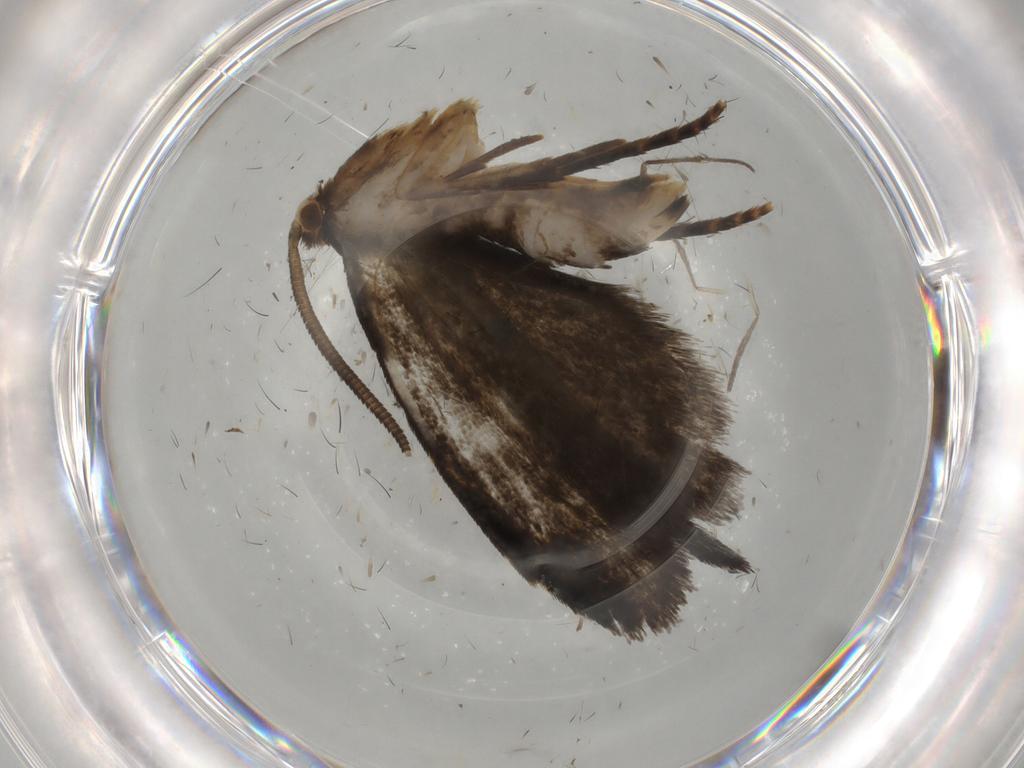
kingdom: Animalia
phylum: Arthropoda
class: Insecta
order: Lepidoptera
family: Dryadaulidae
